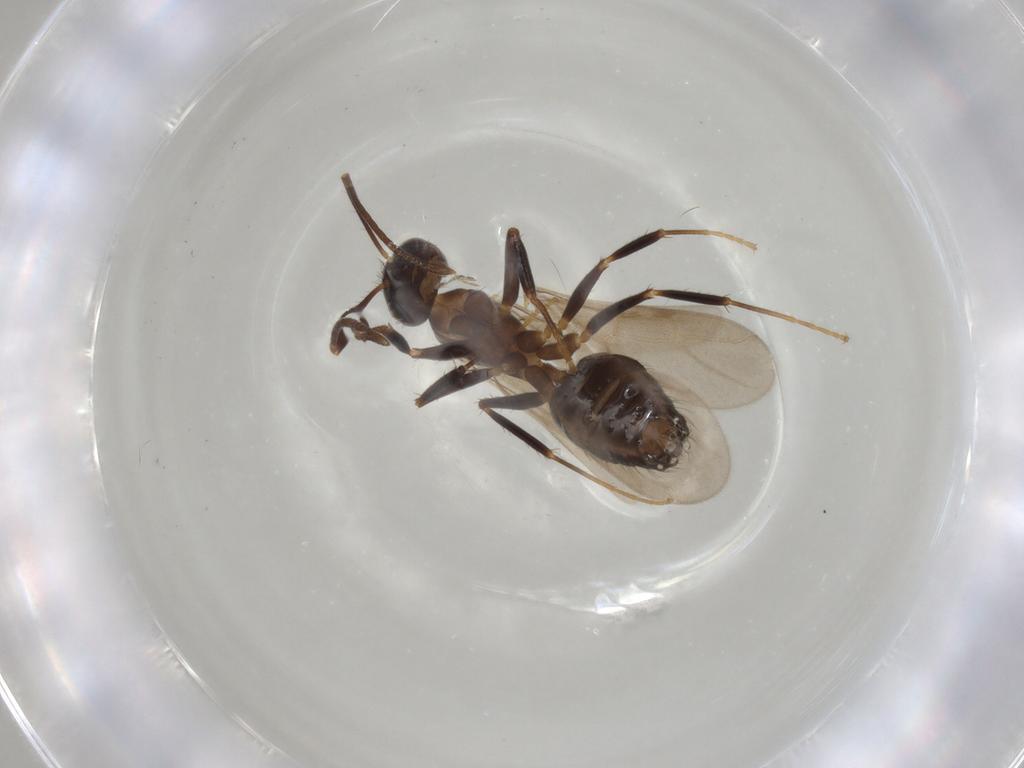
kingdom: Animalia
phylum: Arthropoda
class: Insecta
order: Hymenoptera
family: Formicidae
